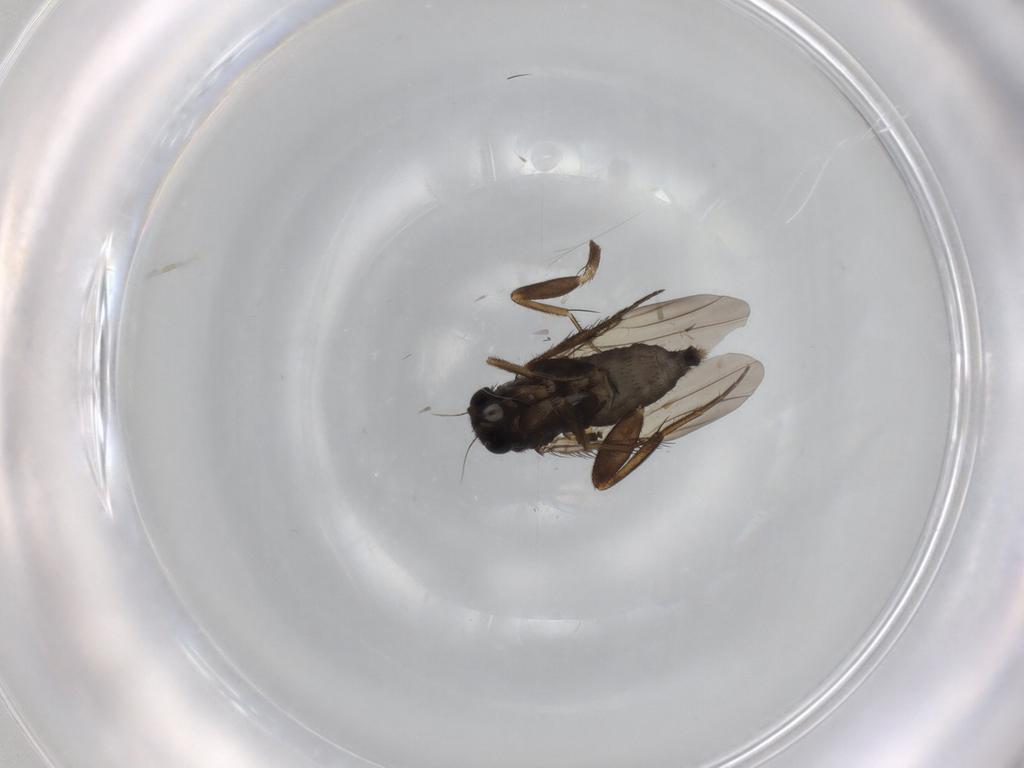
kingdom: Animalia
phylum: Arthropoda
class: Insecta
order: Diptera
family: Phoridae
